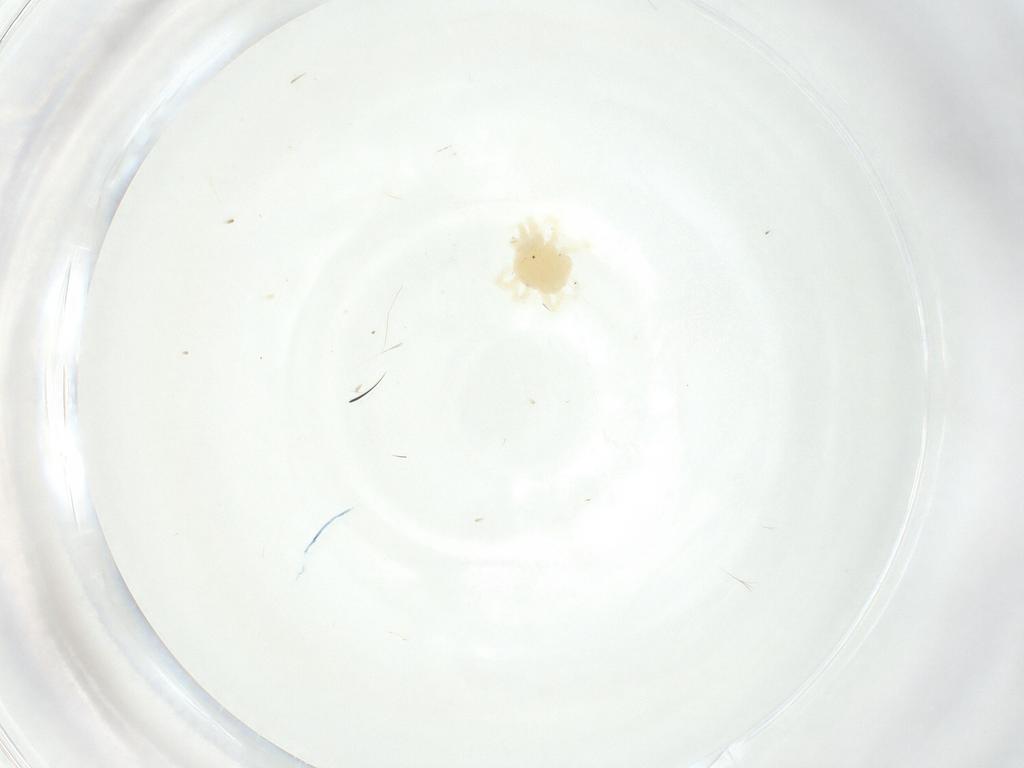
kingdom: Animalia
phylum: Arthropoda
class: Arachnida
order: Mesostigmata
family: Phytoseiidae
